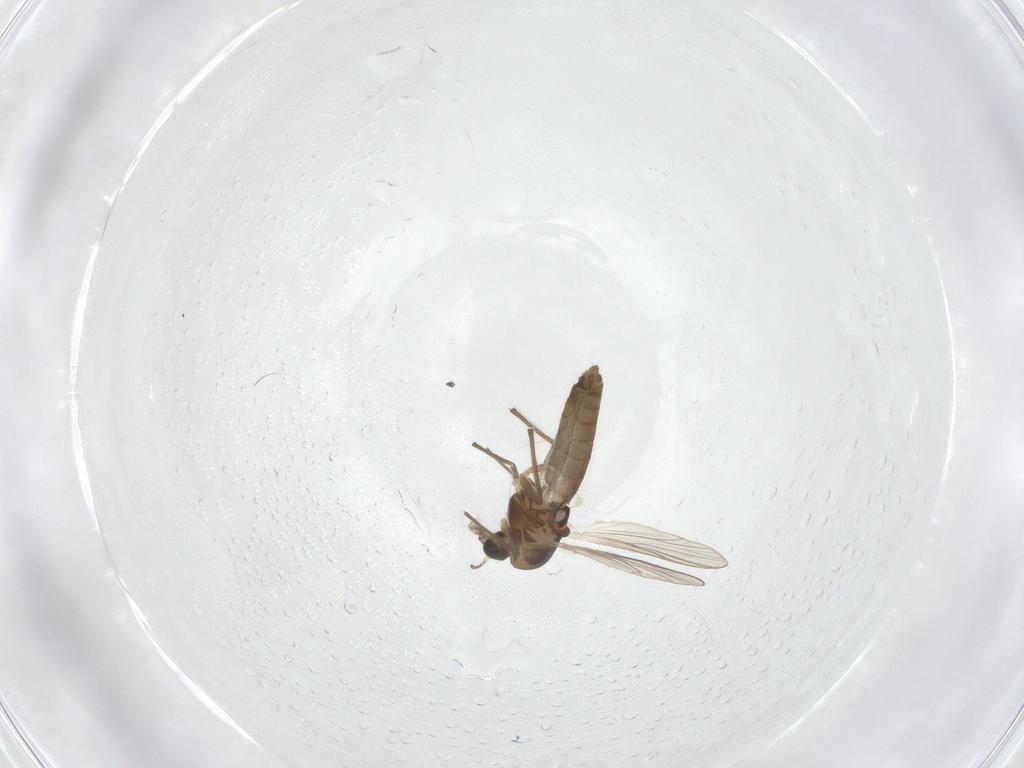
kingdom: Animalia
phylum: Arthropoda
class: Insecta
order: Diptera
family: Chironomidae
